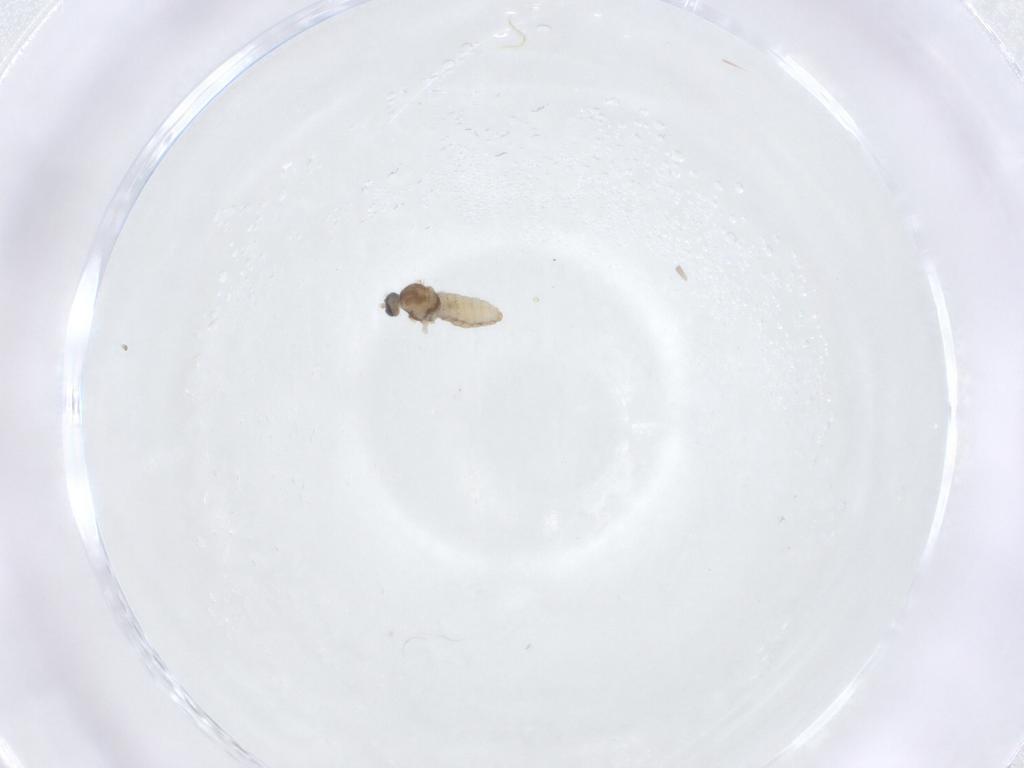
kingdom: Animalia
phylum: Arthropoda
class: Insecta
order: Diptera
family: Cecidomyiidae
